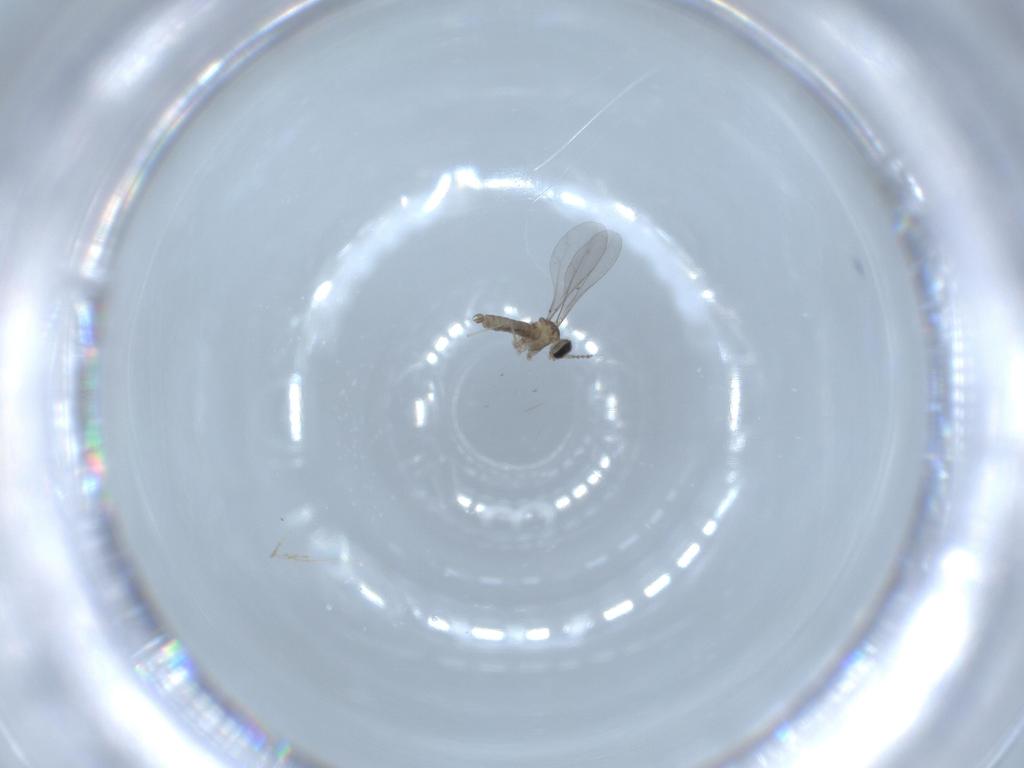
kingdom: Animalia
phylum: Arthropoda
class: Insecta
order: Diptera
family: Cecidomyiidae
